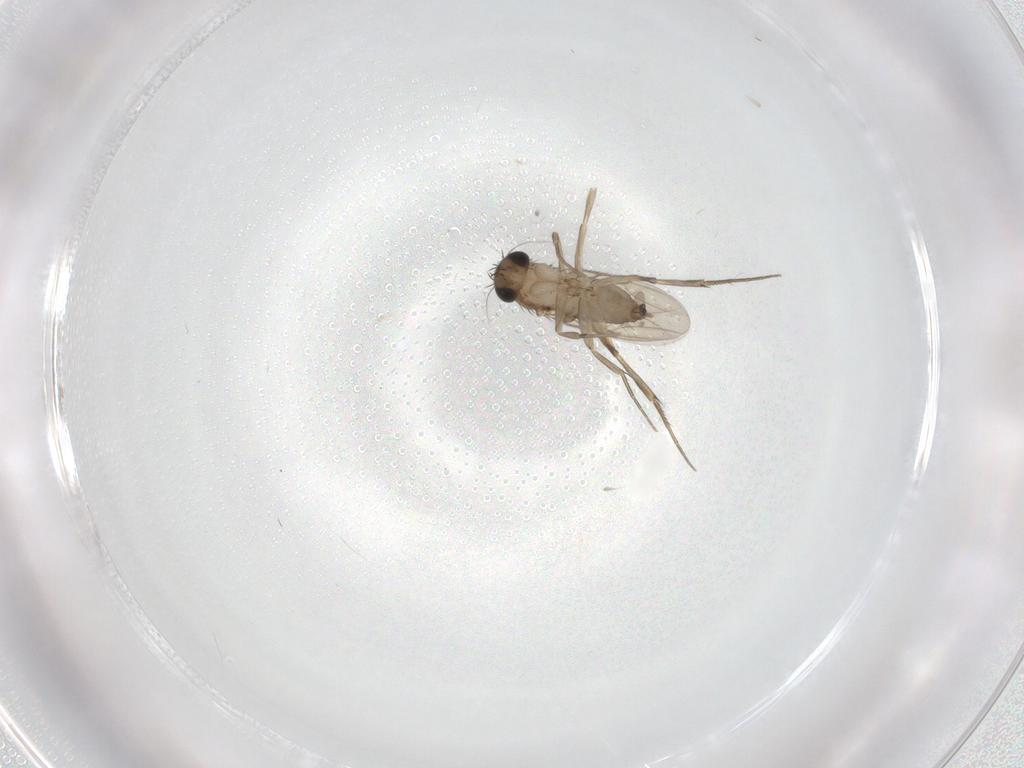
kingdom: Animalia
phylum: Arthropoda
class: Insecta
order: Diptera
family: Phoridae
